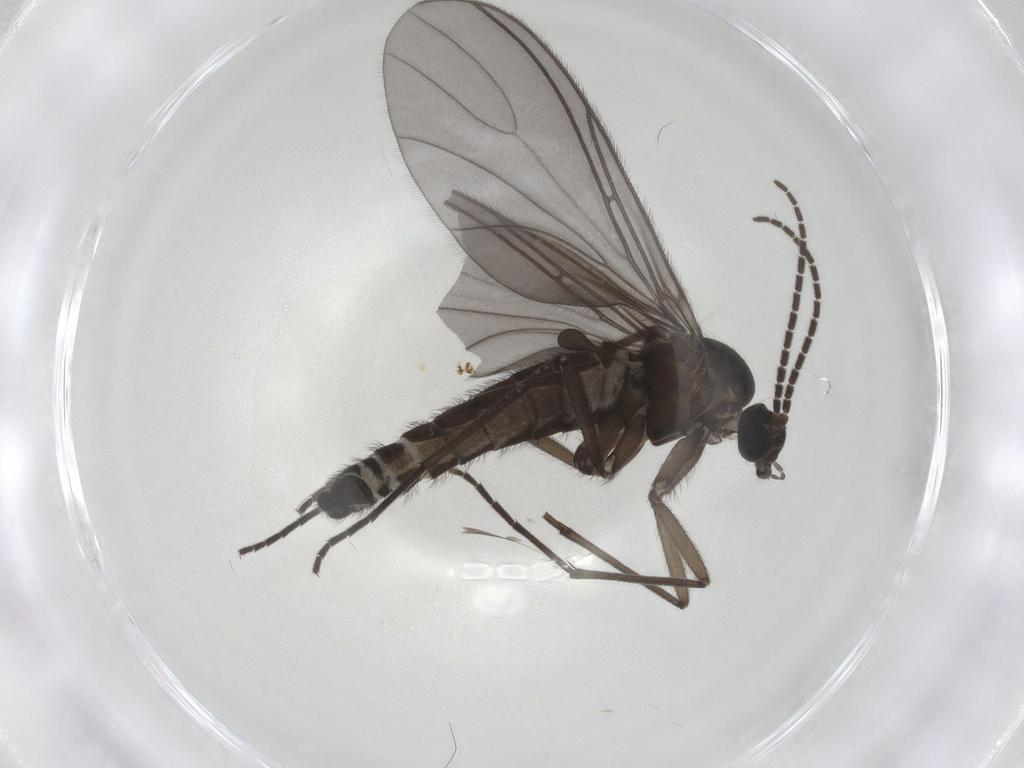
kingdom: Animalia
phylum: Arthropoda
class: Insecta
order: Diptera
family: Sciaridae
